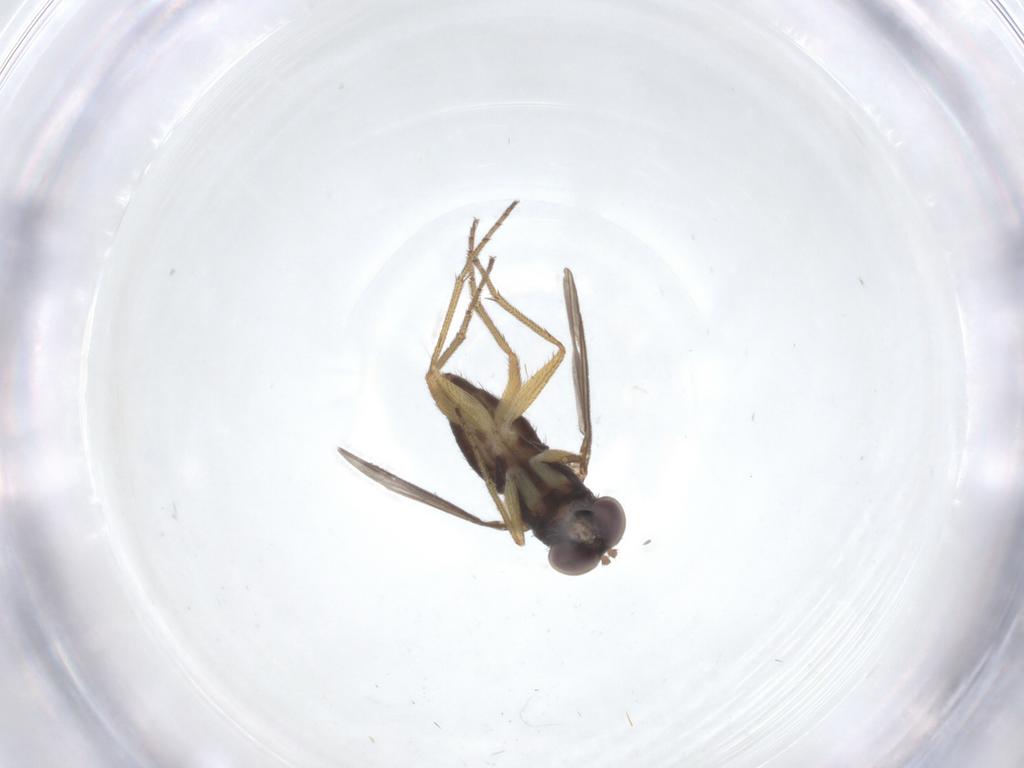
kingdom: Animalia
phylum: Arthropoda
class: Insecta
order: Diptera
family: Dolichopodidae
